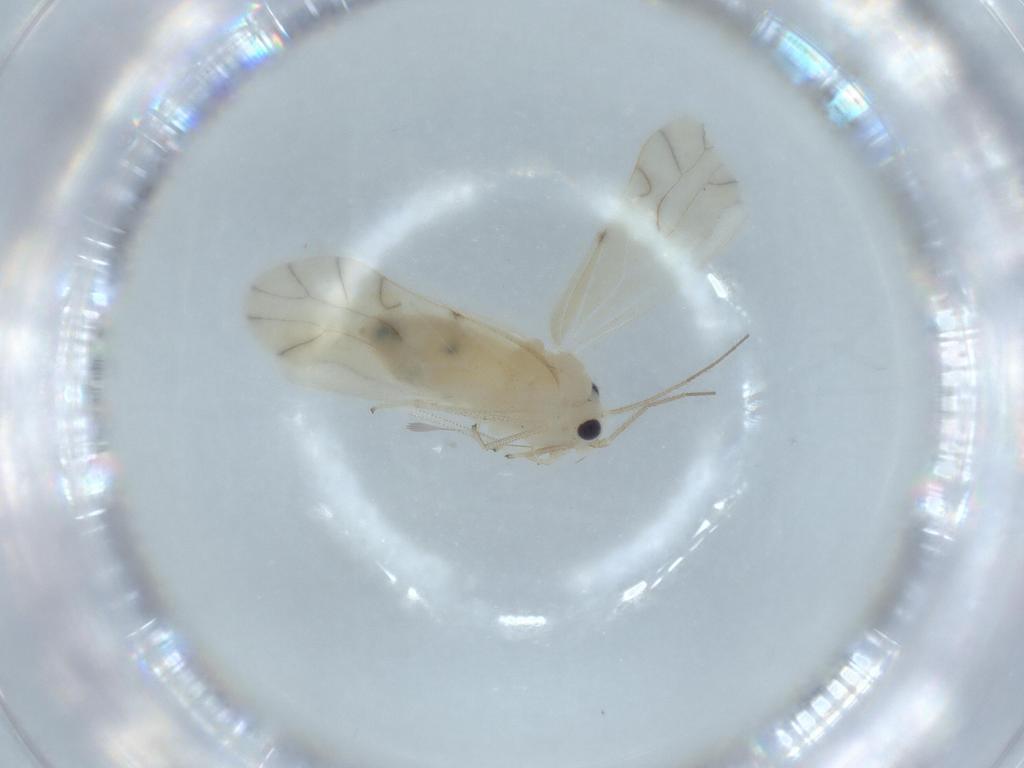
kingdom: Animalia
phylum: Arthropoda
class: Insecta
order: Psocodea
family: Caeciliusidae
